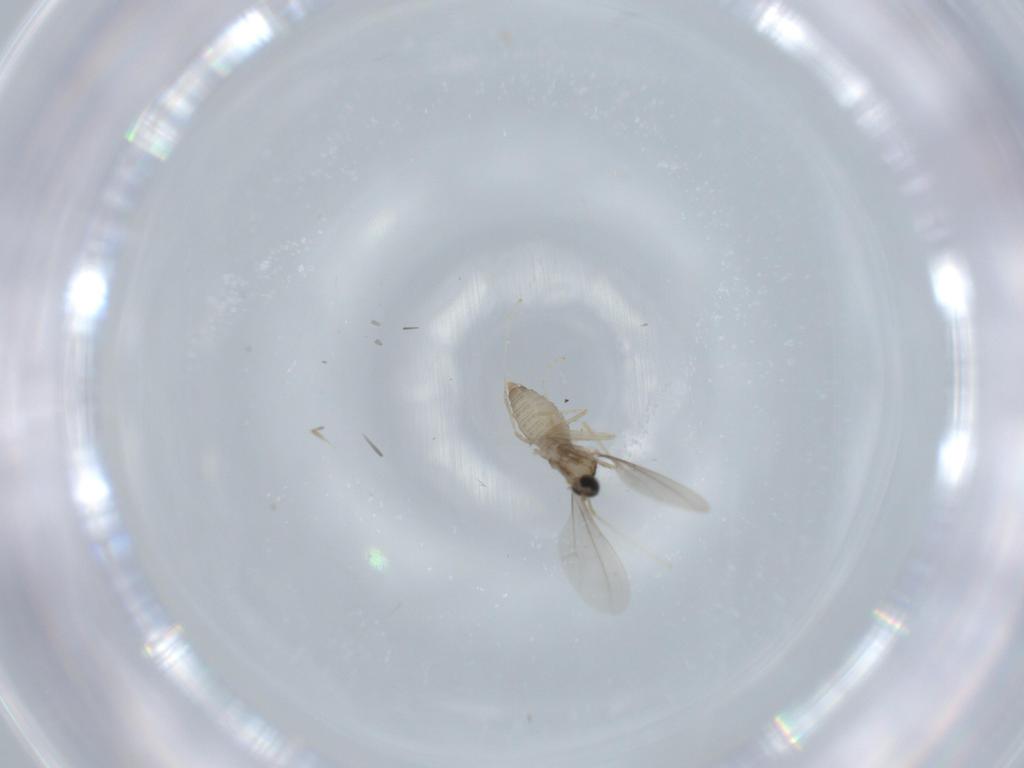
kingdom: Animalia
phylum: Arthropoda
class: Insecta
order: Diptera
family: Cecidomyiidae
